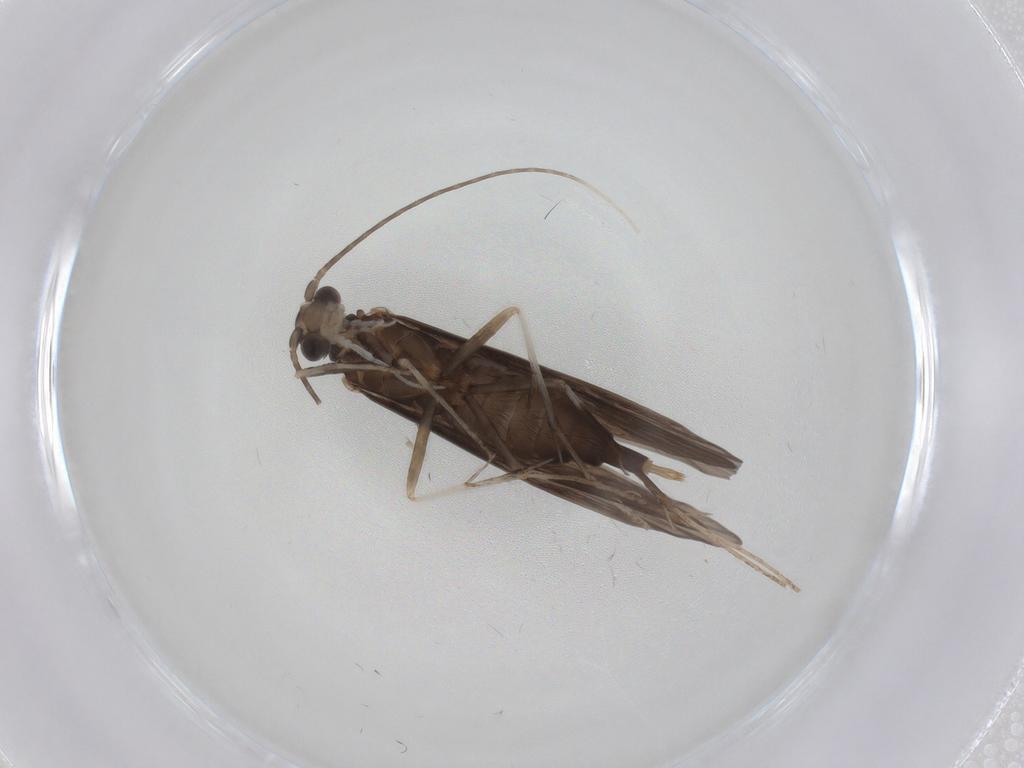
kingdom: Animalia
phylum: Arthropoda
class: Insecta
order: Trichoptera
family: Xiphocentronidae
